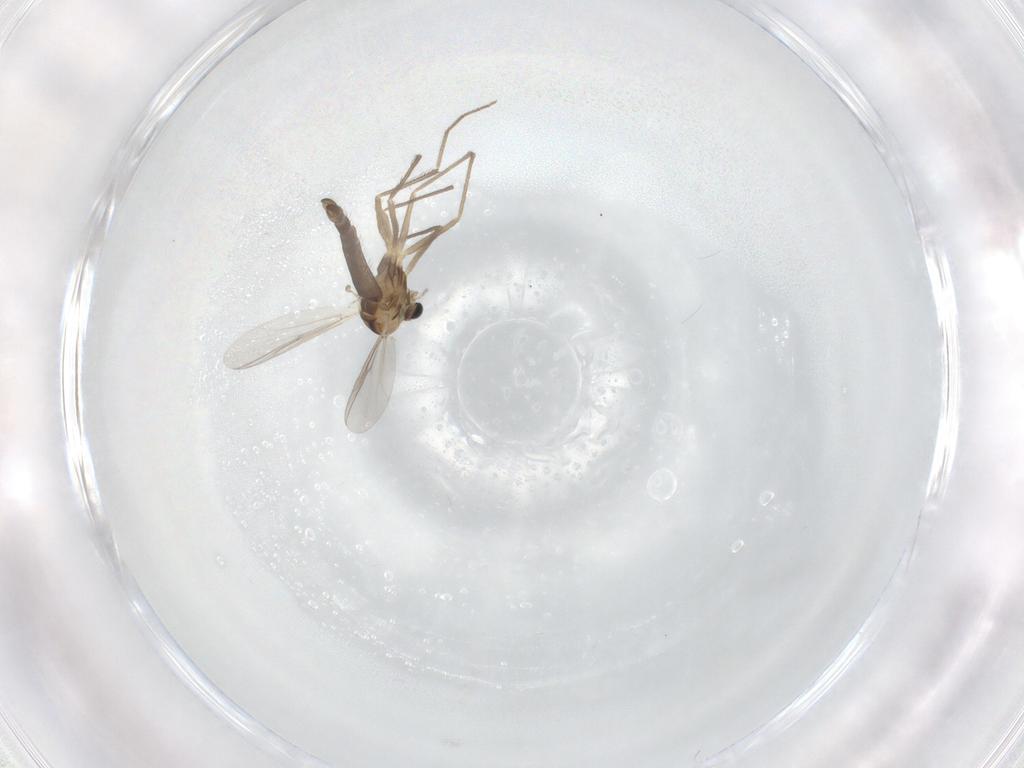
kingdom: Animalia
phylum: Arthropoda
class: Insecta
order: Diptera
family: Chironomidae
